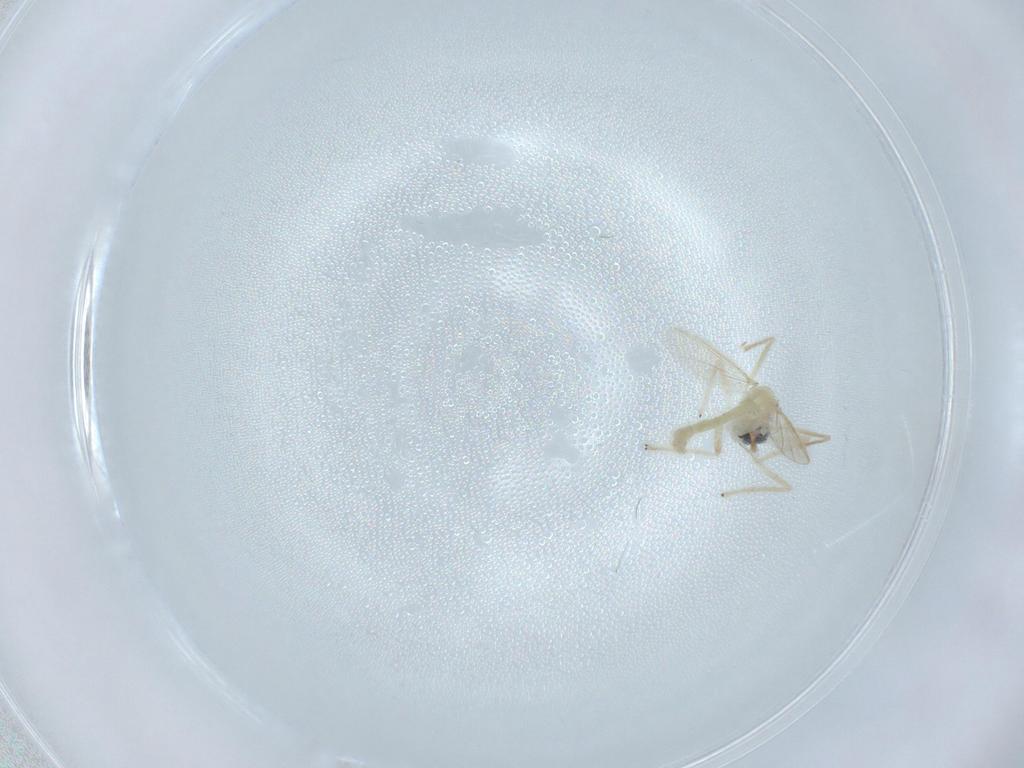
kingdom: Animalia
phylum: Arthropoda
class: Insecta
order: Diptera
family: Chironomidae
